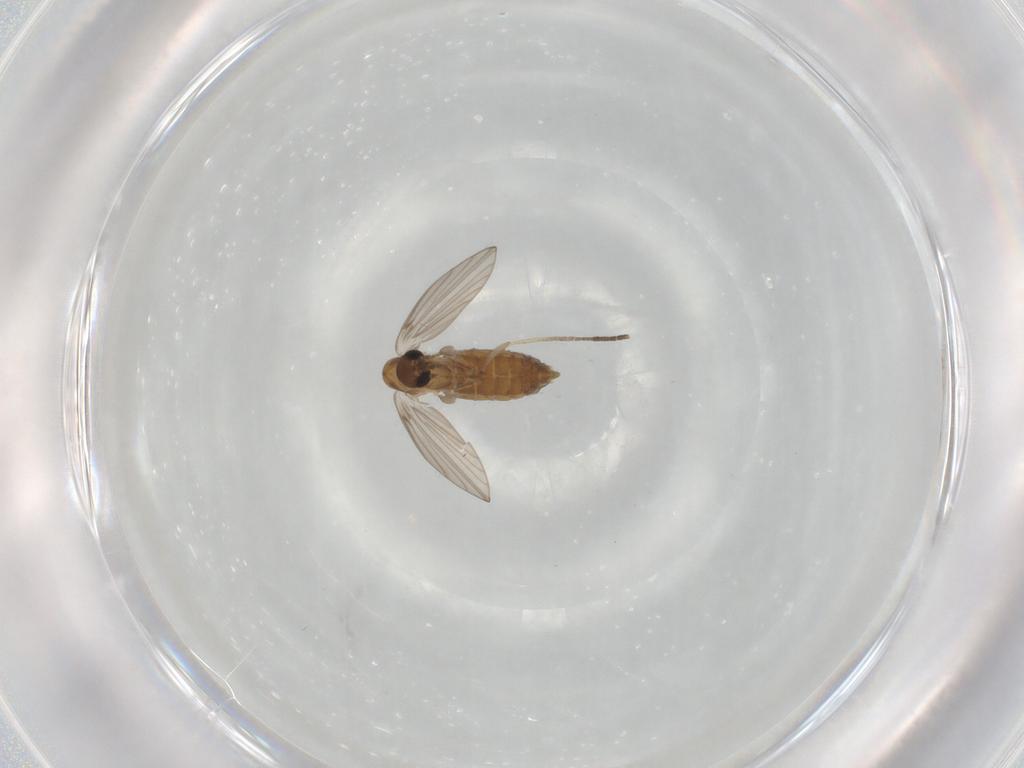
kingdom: Animalia
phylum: Arthropoda
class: Insecta
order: Diptera
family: Psychodidae
